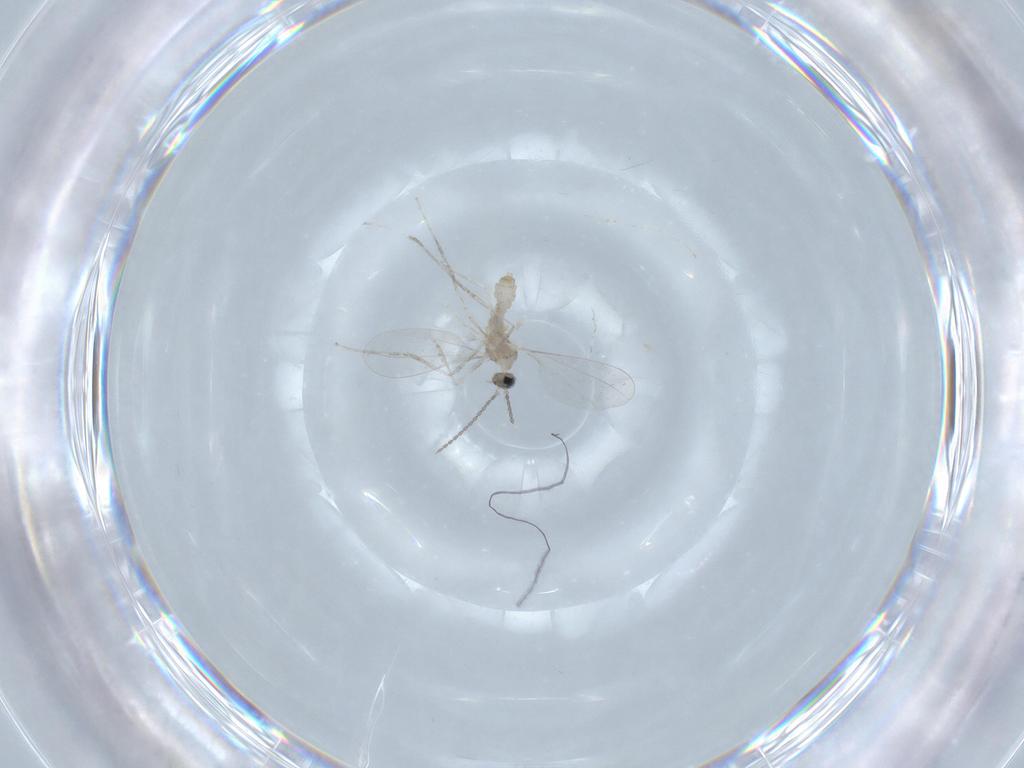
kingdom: Animalia
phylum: Arthropoda
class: Insecta
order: Diptera
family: Cecidomyiidae
